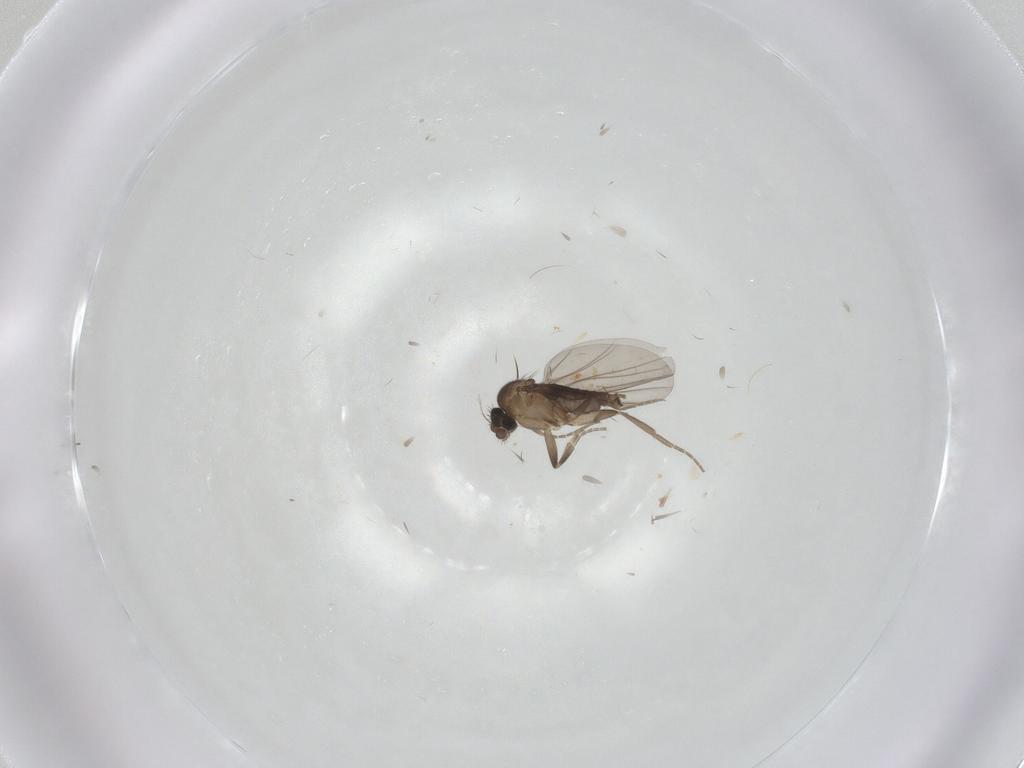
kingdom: Animalia
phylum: Arthropoda
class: Insecta
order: Diptera
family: Phoridae
